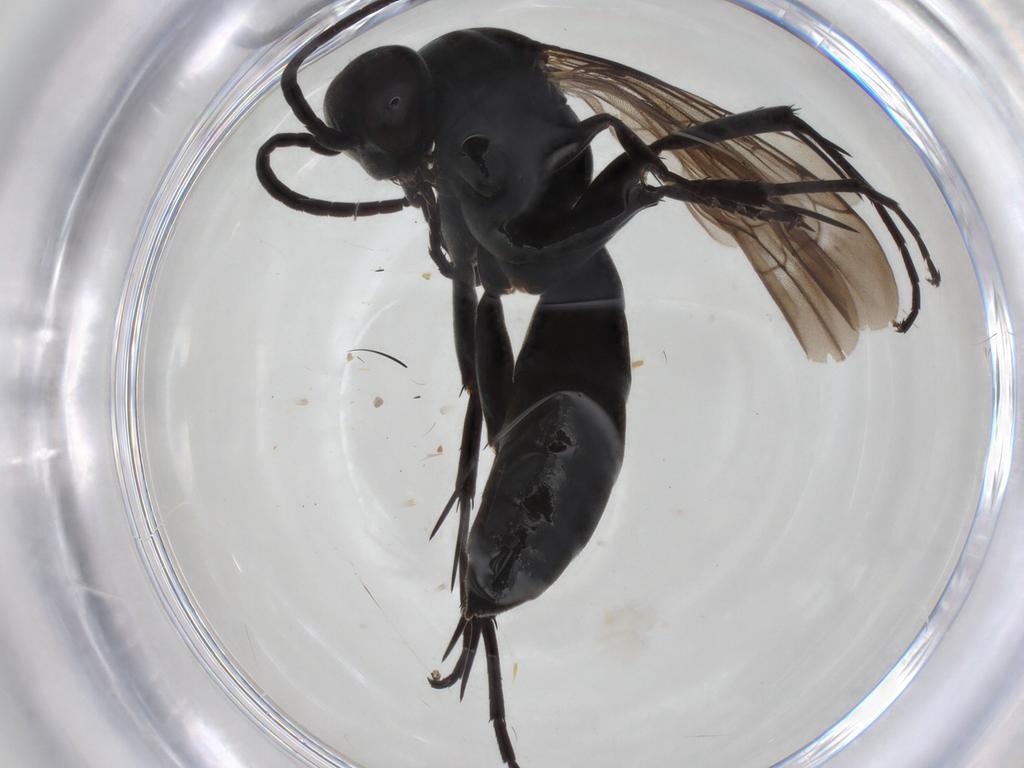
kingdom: Animalia
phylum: Arthropoda
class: Insecta
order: Hymenoptera
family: Pompilidae
